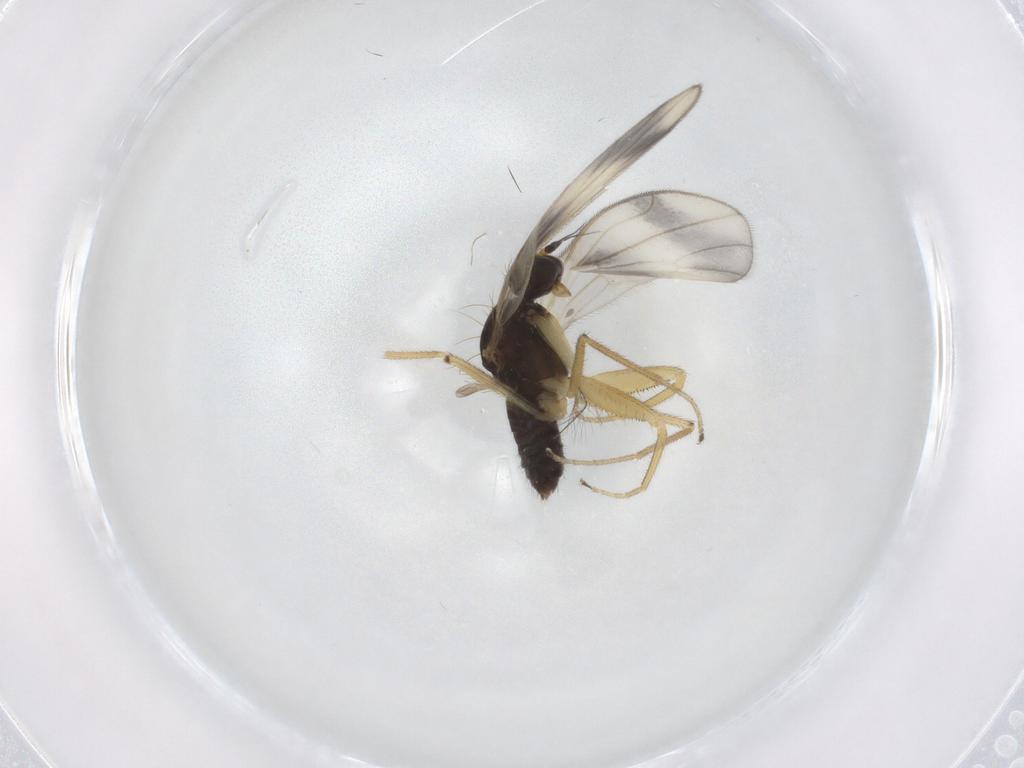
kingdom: Animalia
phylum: Arthropoda
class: Insecta
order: Diptera
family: Chironomidae
